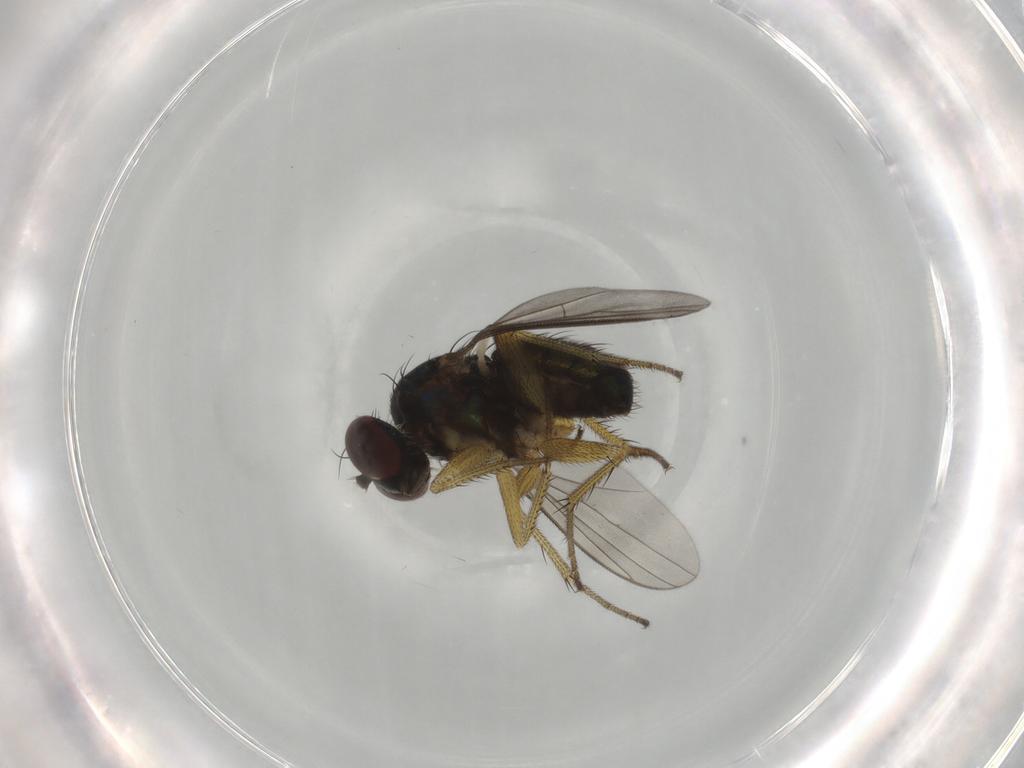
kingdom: Animalia
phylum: Arthropoda
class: Insecta
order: Diptera
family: Dolichopodidae
